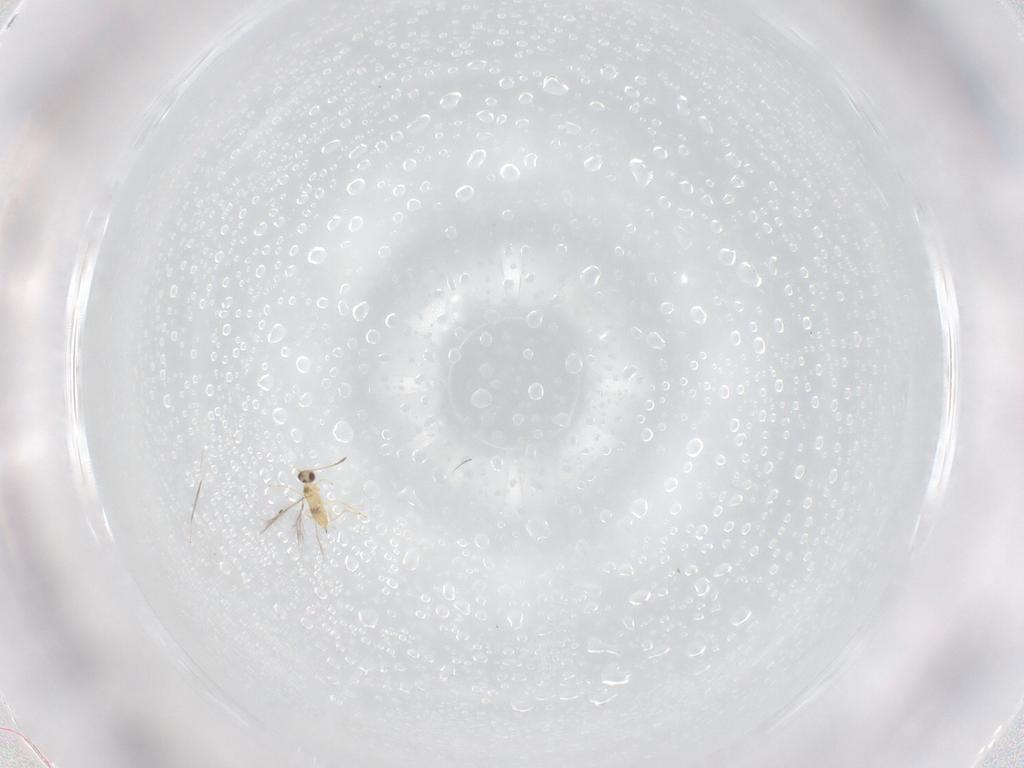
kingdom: Animalia
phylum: Arthropoda
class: Insecta
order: Hymenoptera
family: Mymaridae
